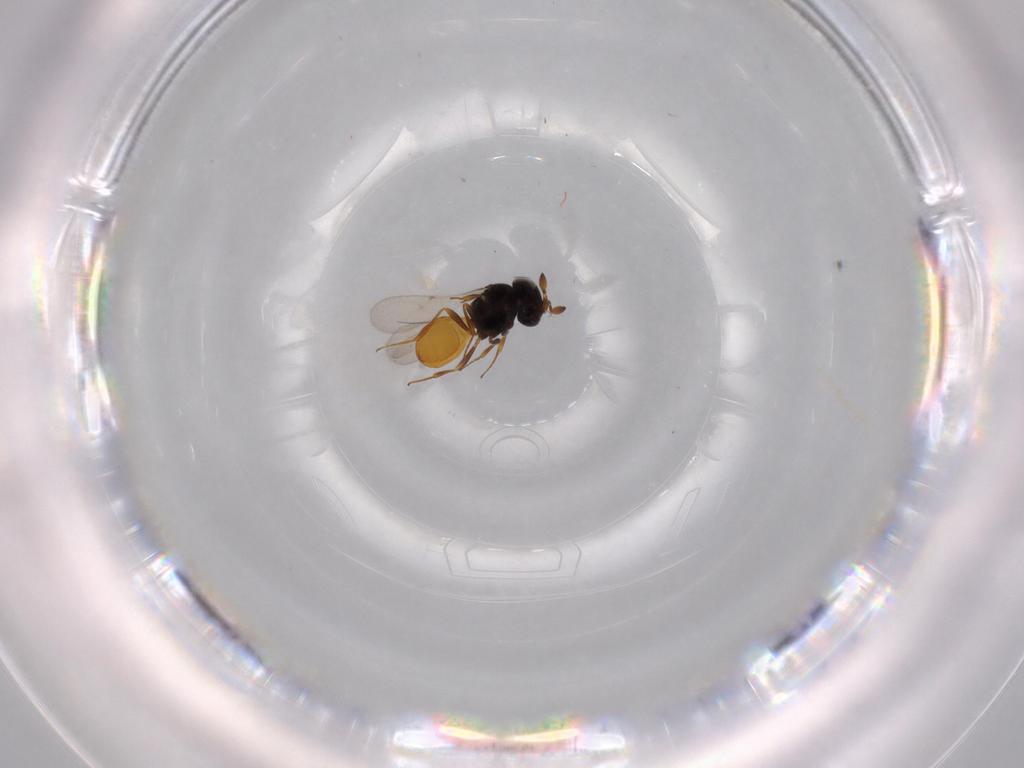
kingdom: Animalia
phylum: Arthropoda
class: Insecta
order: Hymenoptera
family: Scelionidae
